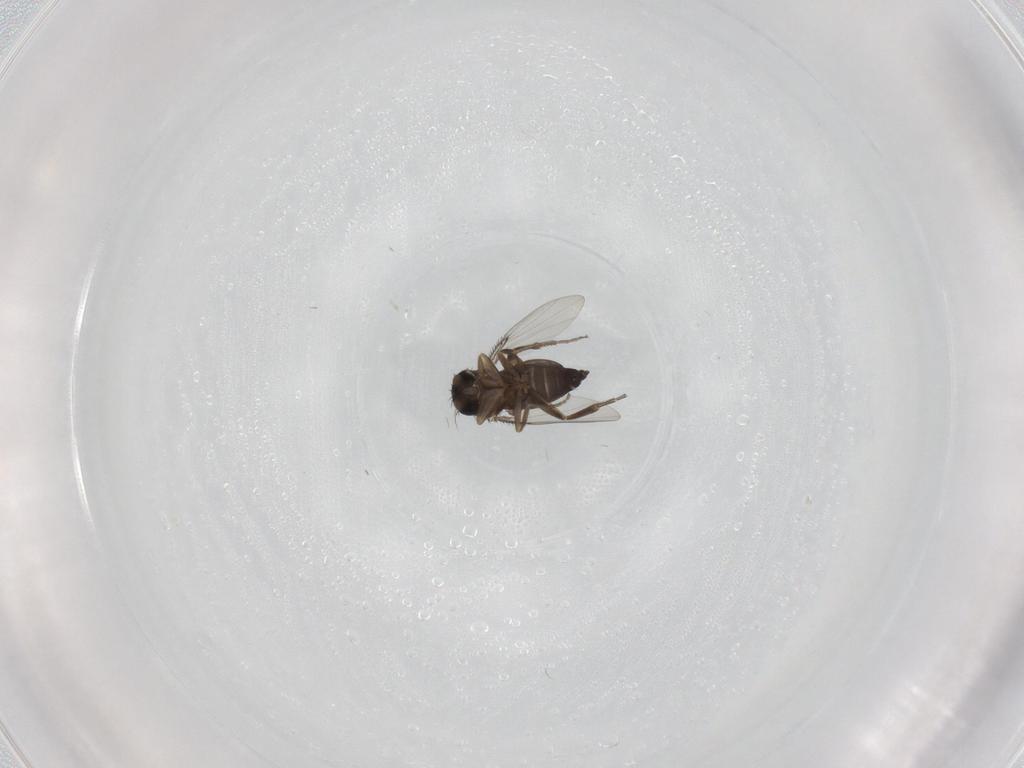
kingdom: Animalia
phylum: Arthropoda
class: Insecta
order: Diptera
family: Phoridae
